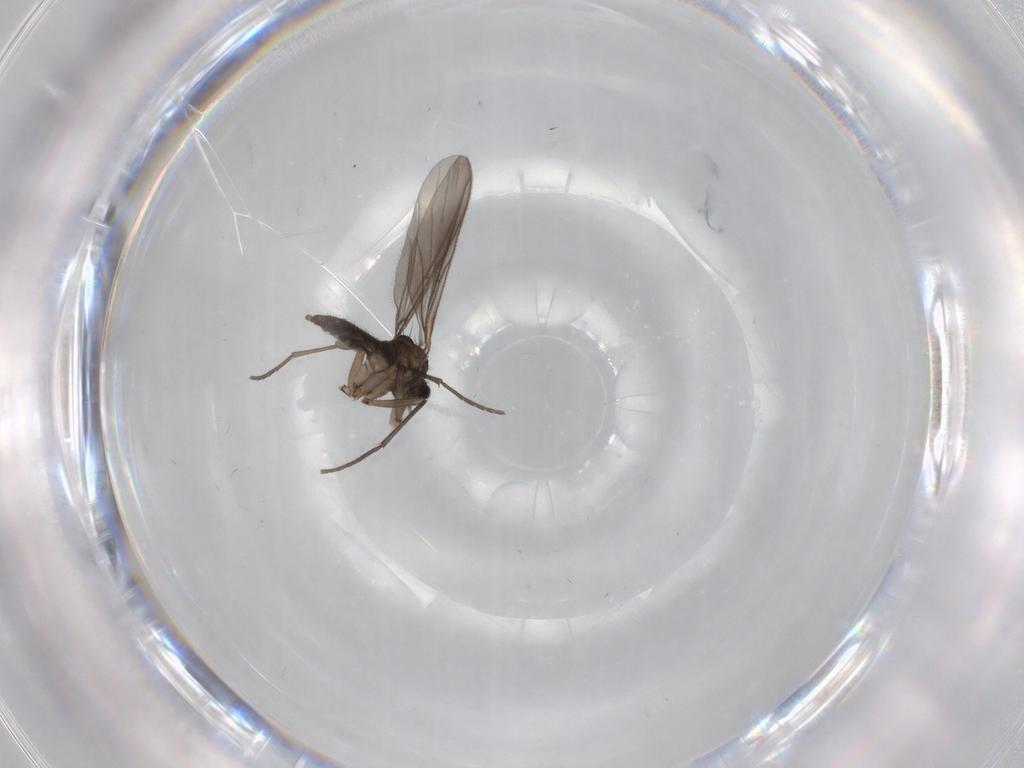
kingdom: Animalia
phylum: Arthropoda
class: Insecta
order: Diptera
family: Sciaridae
